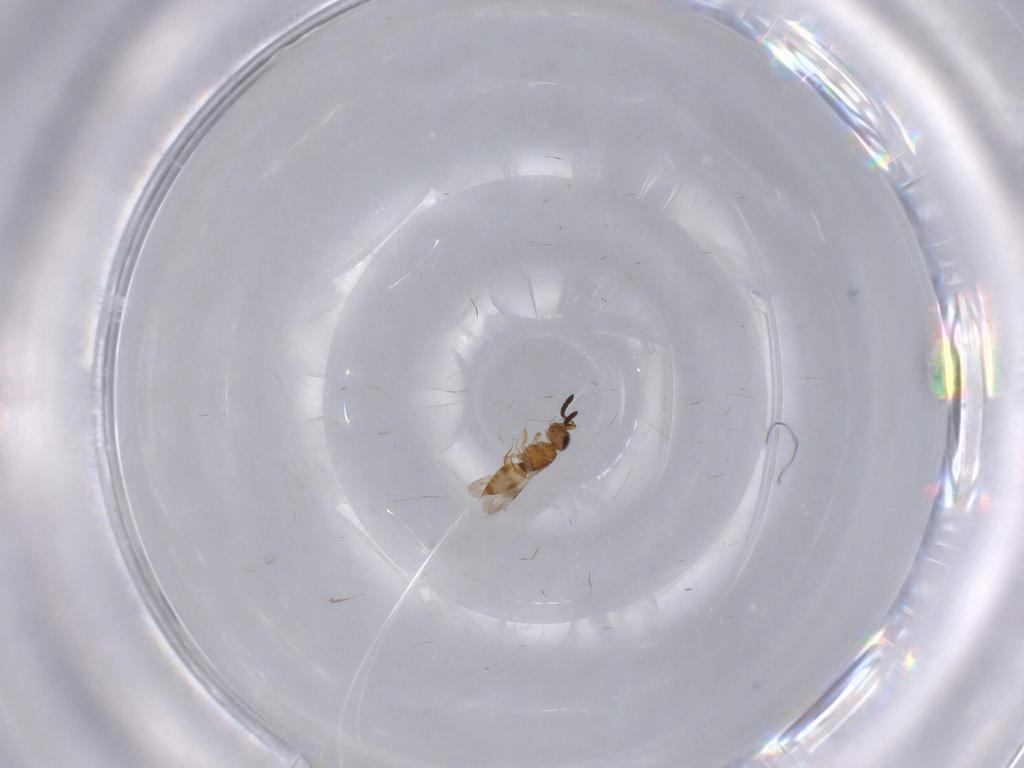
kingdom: Animalia
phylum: Arthropoda
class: Insecta
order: Hymenoptera
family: Ceraphronidae
